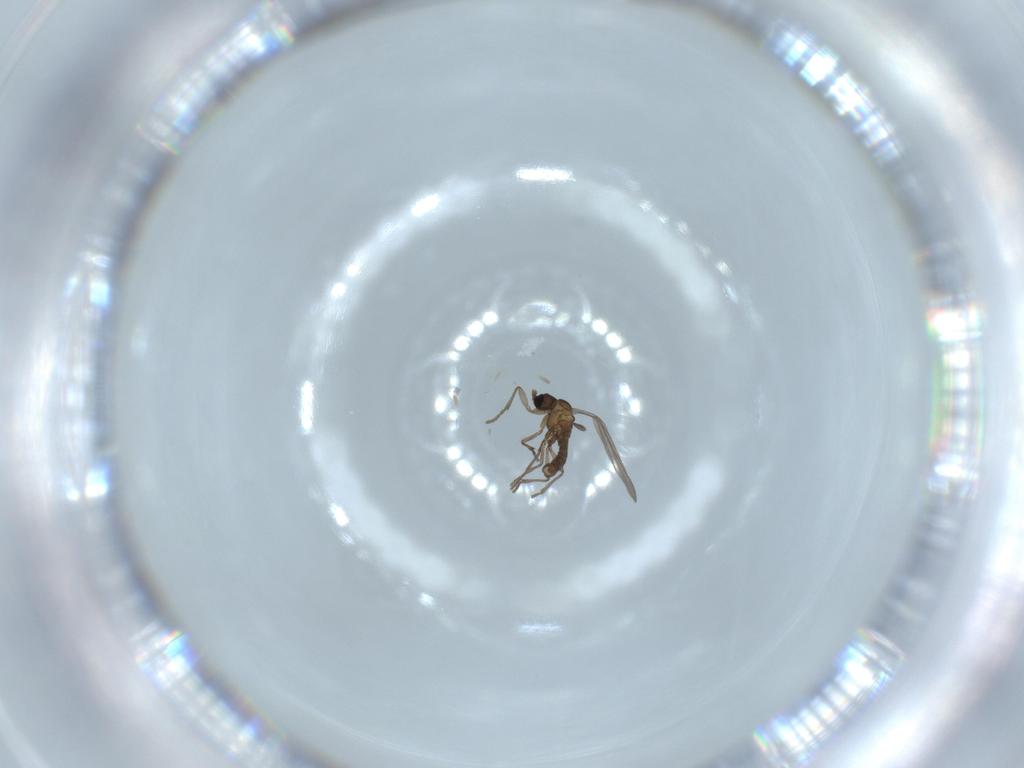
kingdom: Animalia
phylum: Arthropoda
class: Insecta
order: Diptera
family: Sciaridae
